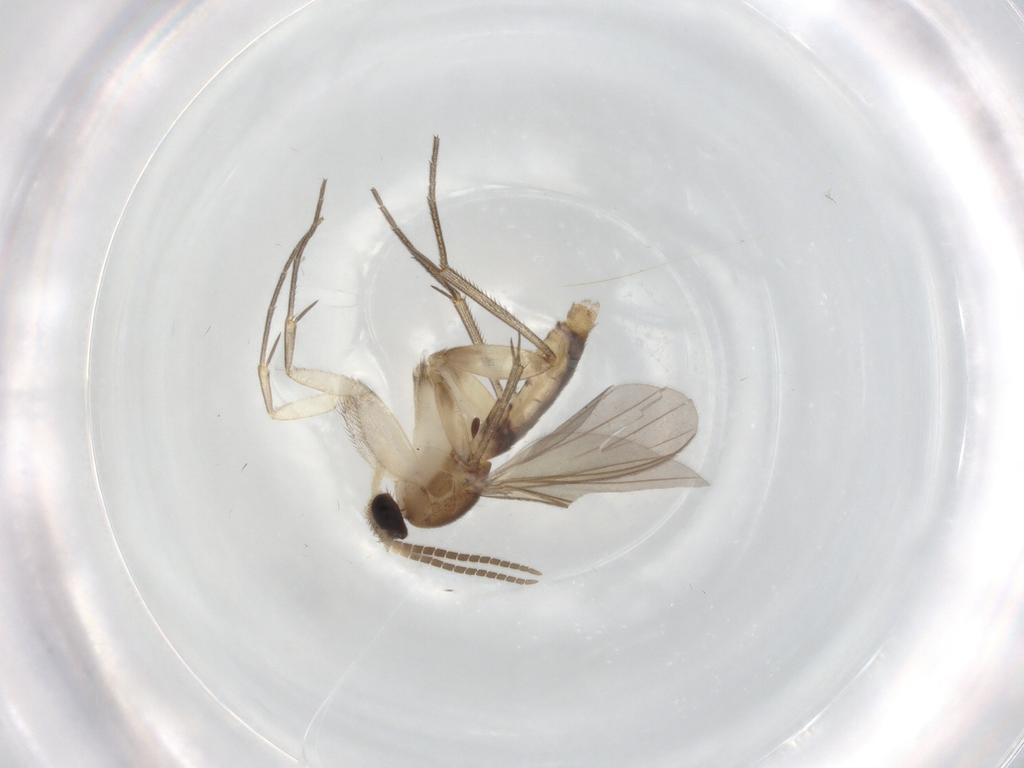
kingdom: Animalia
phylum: Arthropoda
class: Insecta
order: Diptera
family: Mycetophilidae
